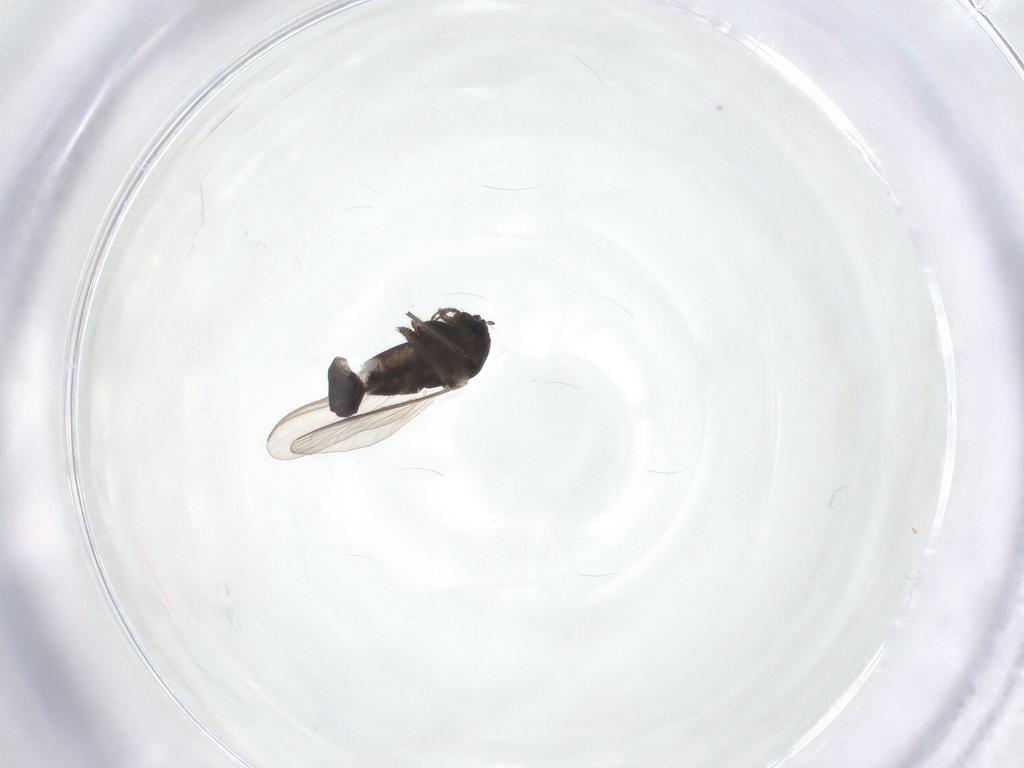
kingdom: Animalia
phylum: Arthropoda
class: Insecta
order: Diptera
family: Chironomidae
